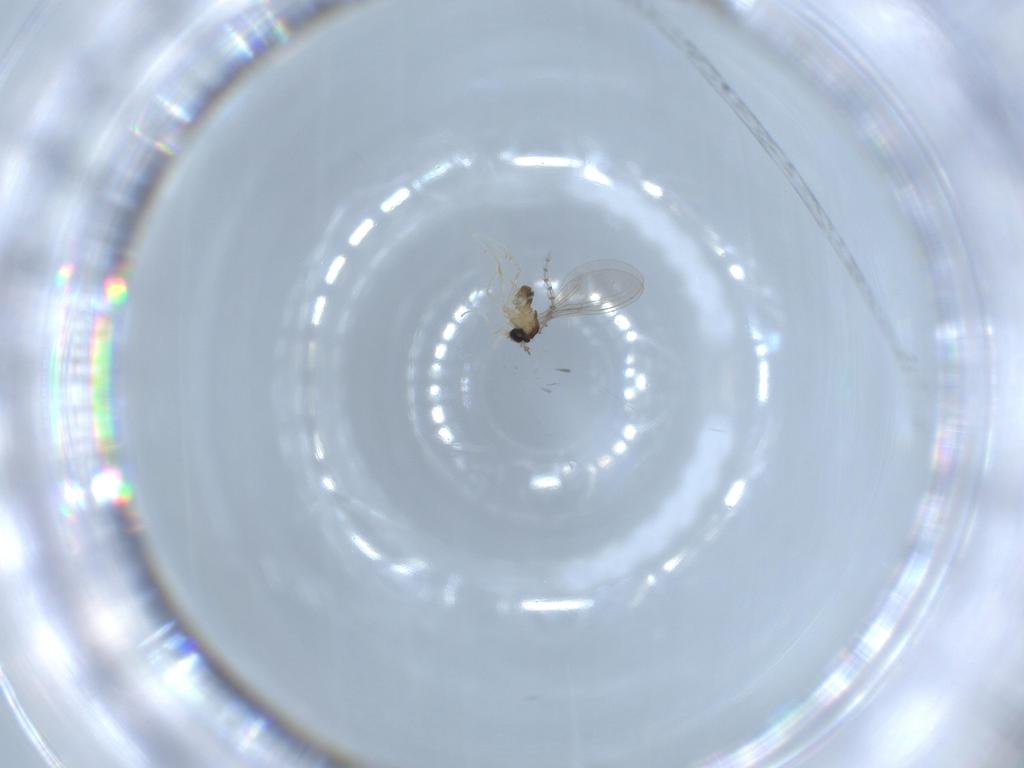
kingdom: Animalia
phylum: Arthropoda
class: Insecta
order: Diptera
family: Cecidomyiidae
